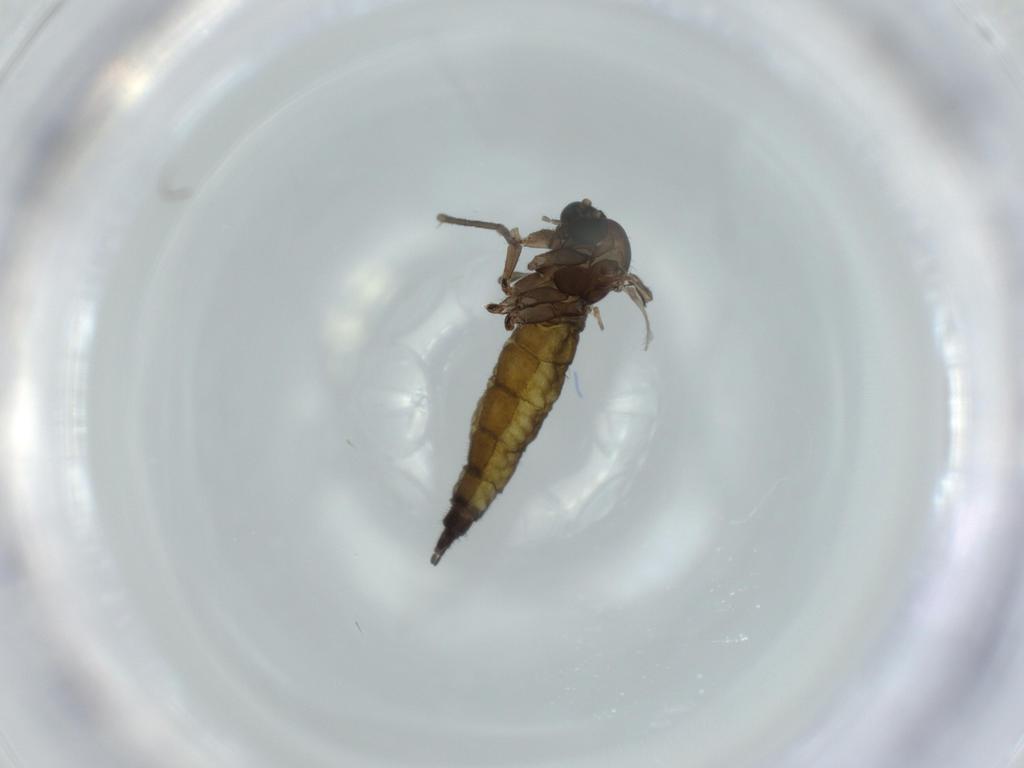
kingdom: Animalia
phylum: Arthropoda
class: Insecta
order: Diptera
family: Sciaridae
